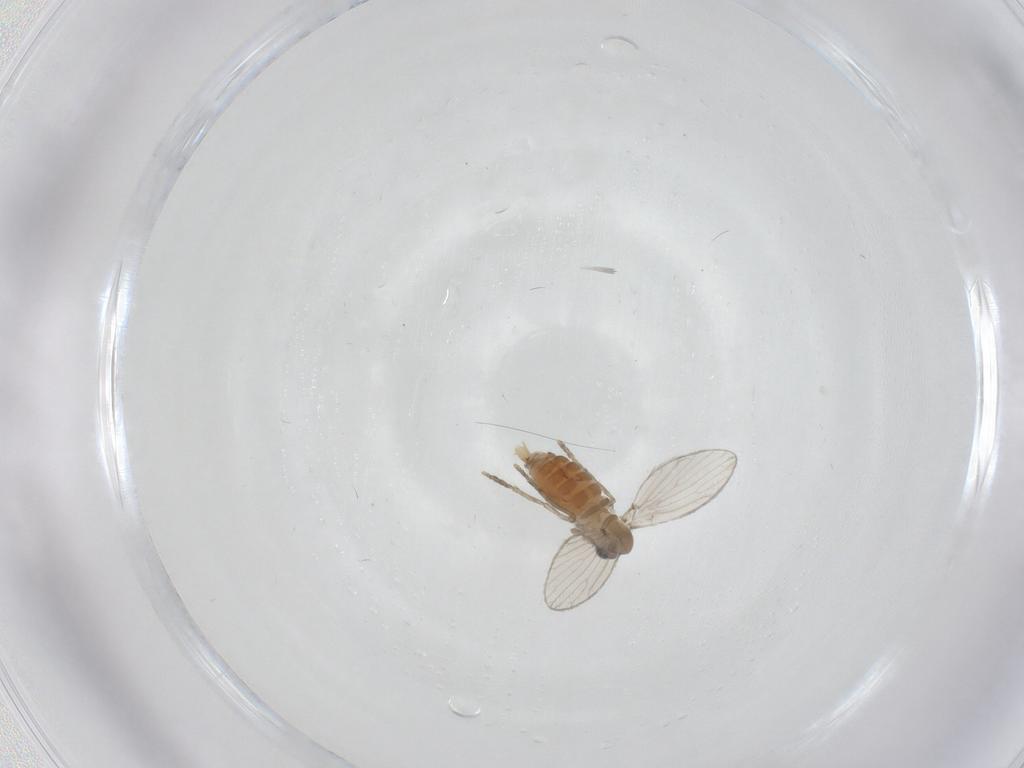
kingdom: Animalia
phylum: Arthropoda
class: Insecta
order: Diptera
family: Psychodidae
